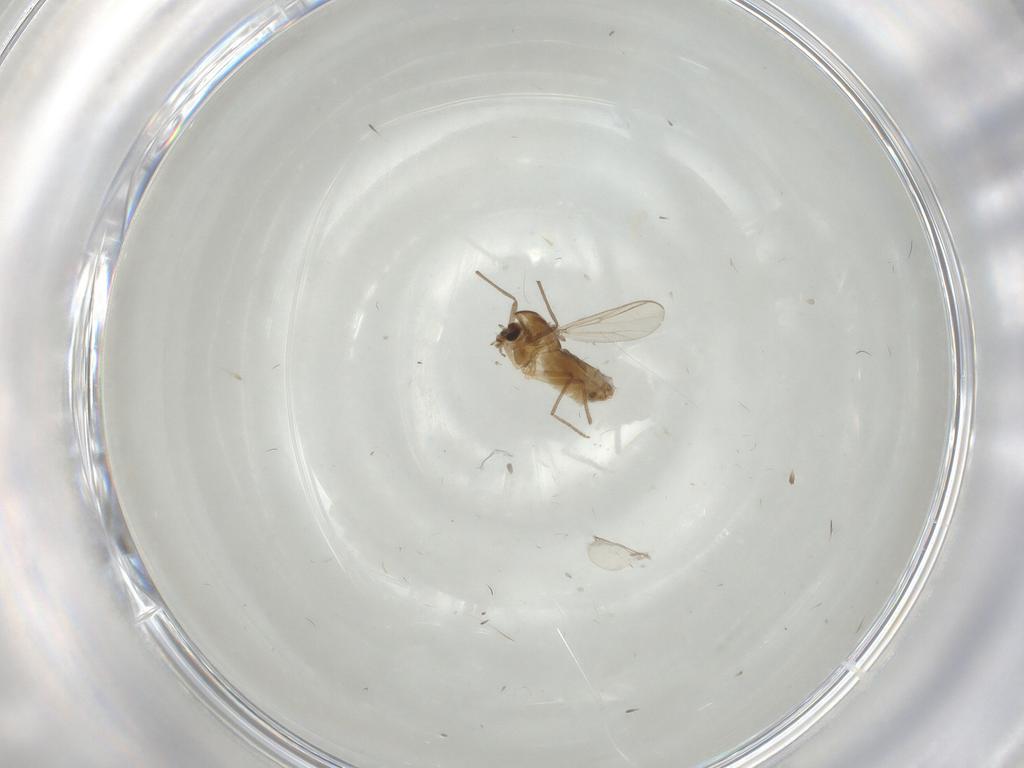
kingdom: Animalia
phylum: Arthropoda
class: Insecta
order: Diptera
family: Chironomidae
